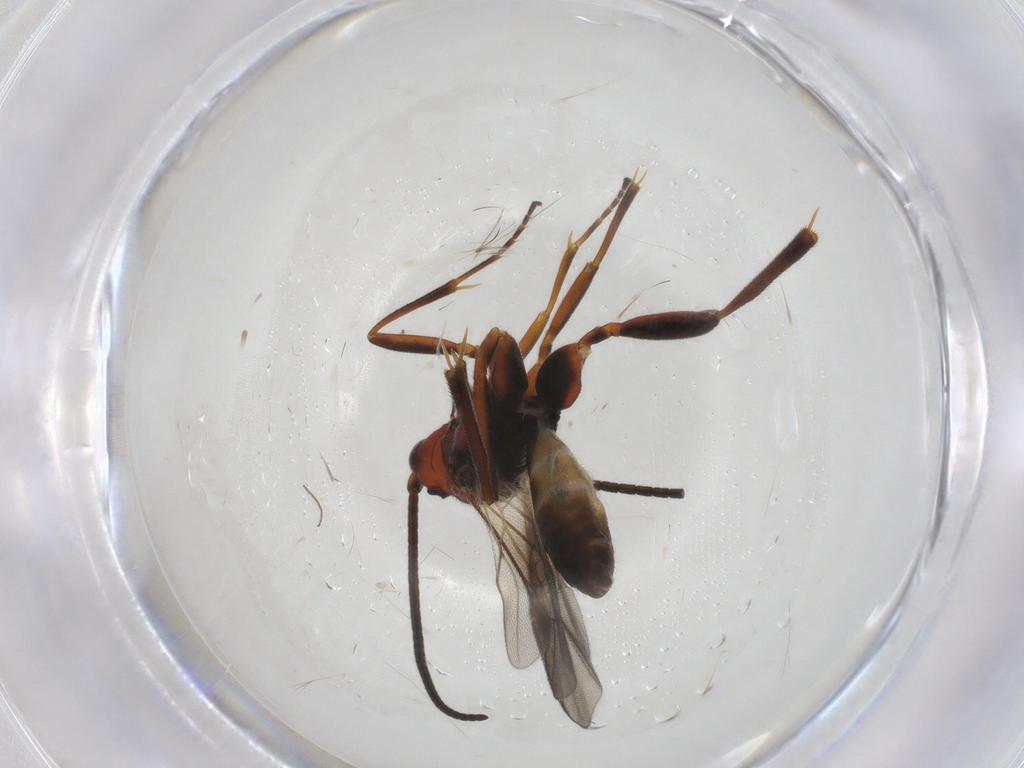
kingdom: Animalia
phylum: Arthropoda
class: Insecta
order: Hymenoptera
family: Braconidae
